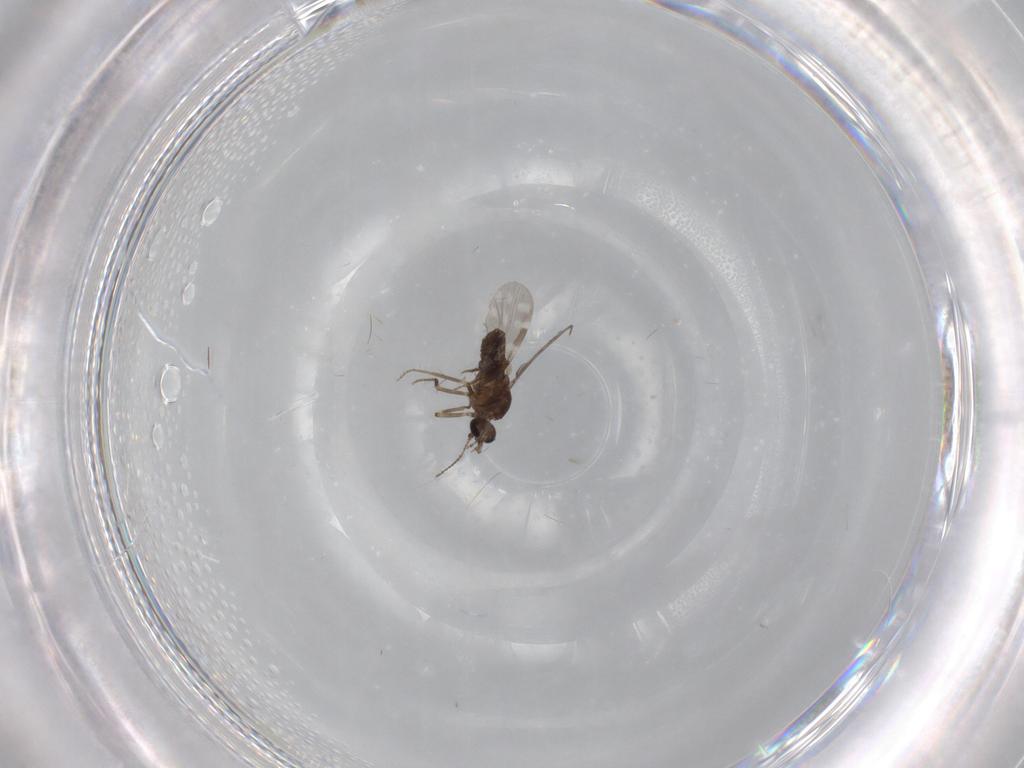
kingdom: Animalia
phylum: Arthropoda
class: Insecta
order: Diptera
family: Limoniidae
